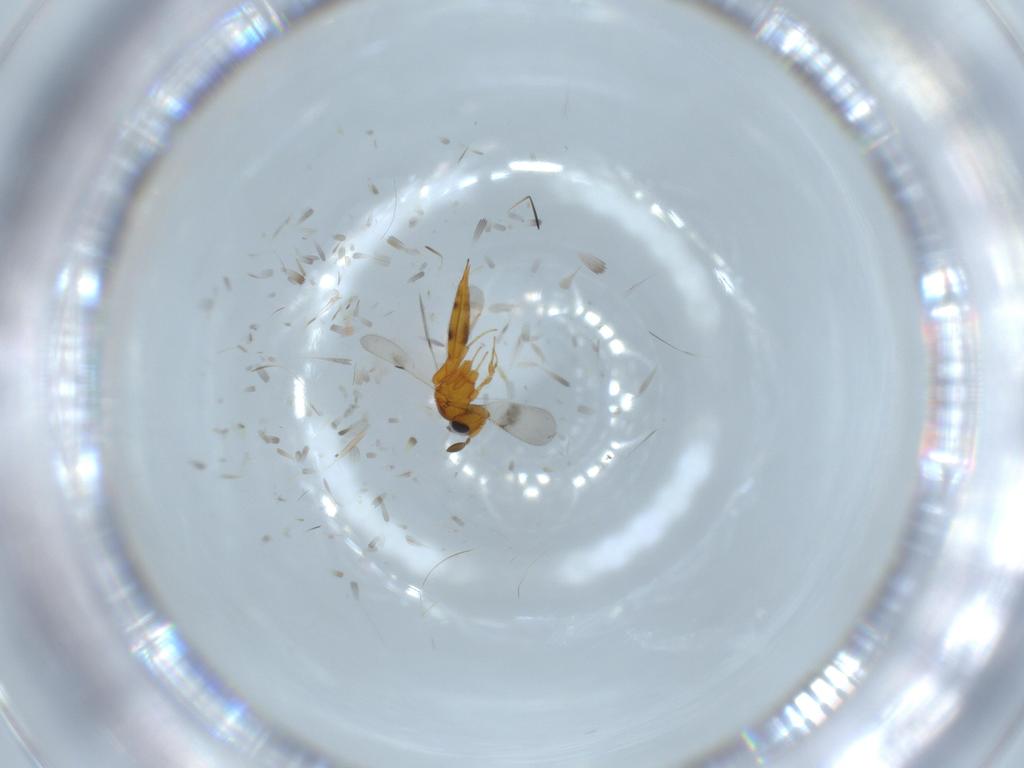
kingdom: Animalia
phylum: Arthropoda
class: Insecta
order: Hymenoptera
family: Scelionidae
